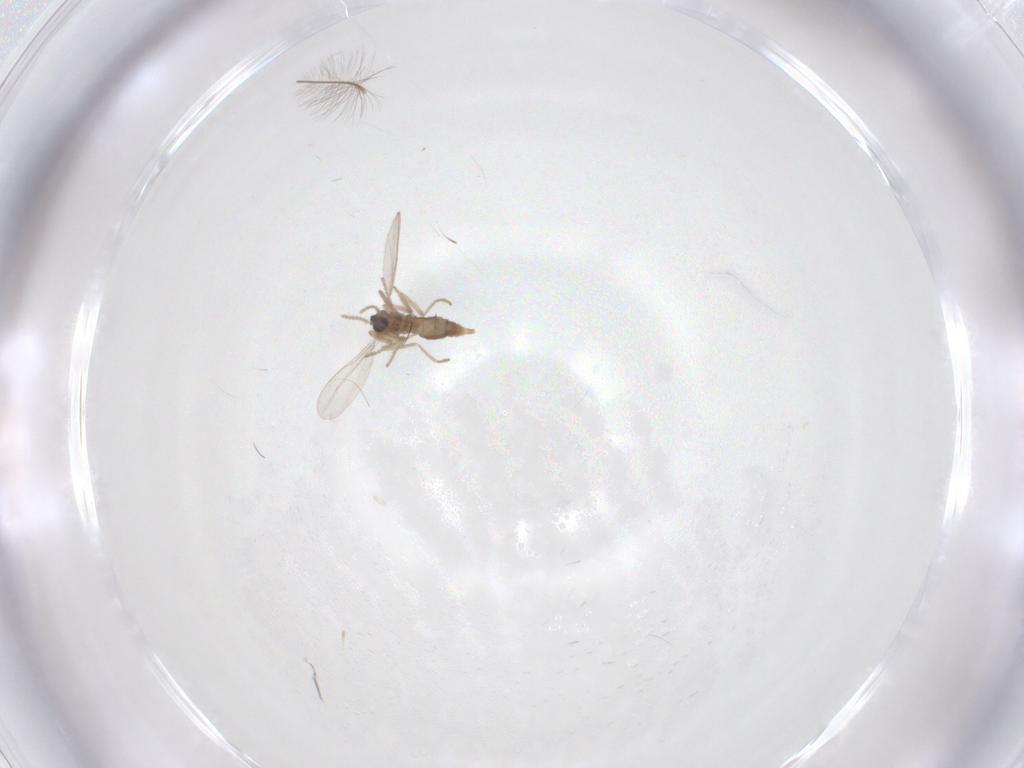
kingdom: Animalia
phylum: Arthropoda
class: Insecta
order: Diptera
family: Cecidomyiidae
